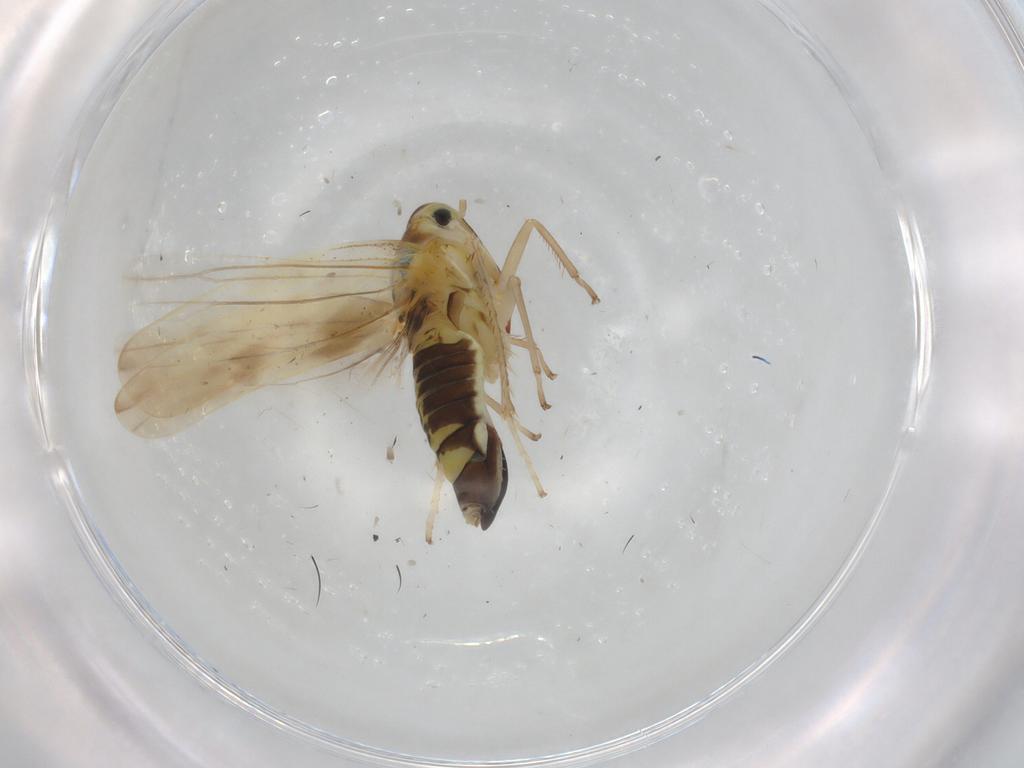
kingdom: Animalia
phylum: Arthropoda
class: Insecta
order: Hemiptera
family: Cicadellidae
